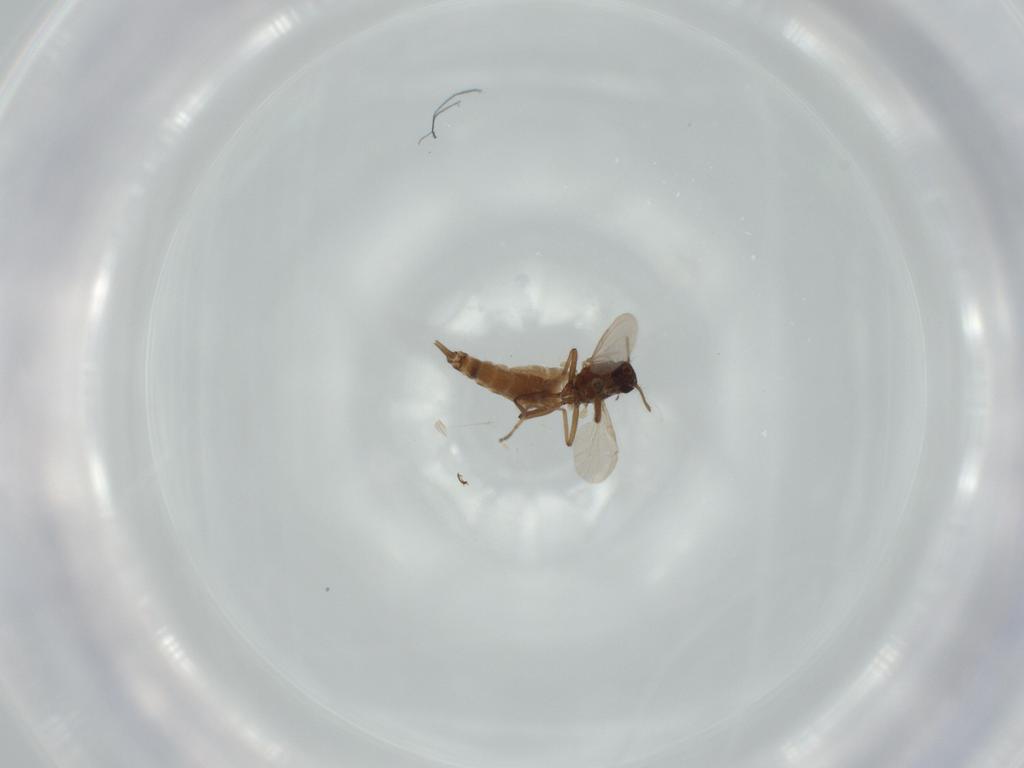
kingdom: Animalia
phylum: Arthropoda
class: Insecta
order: Diptera
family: Ceratopogonidae
